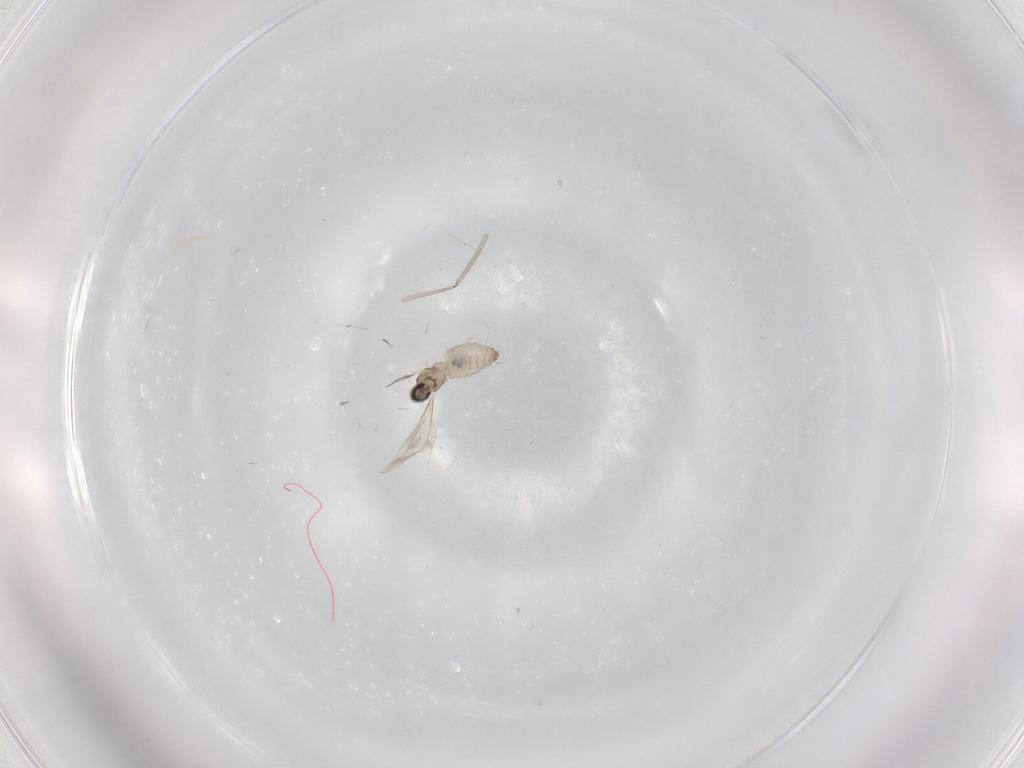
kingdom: Animalia
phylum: Arthropoda
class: Insecta
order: Diptera
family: Cecidomyiidae
